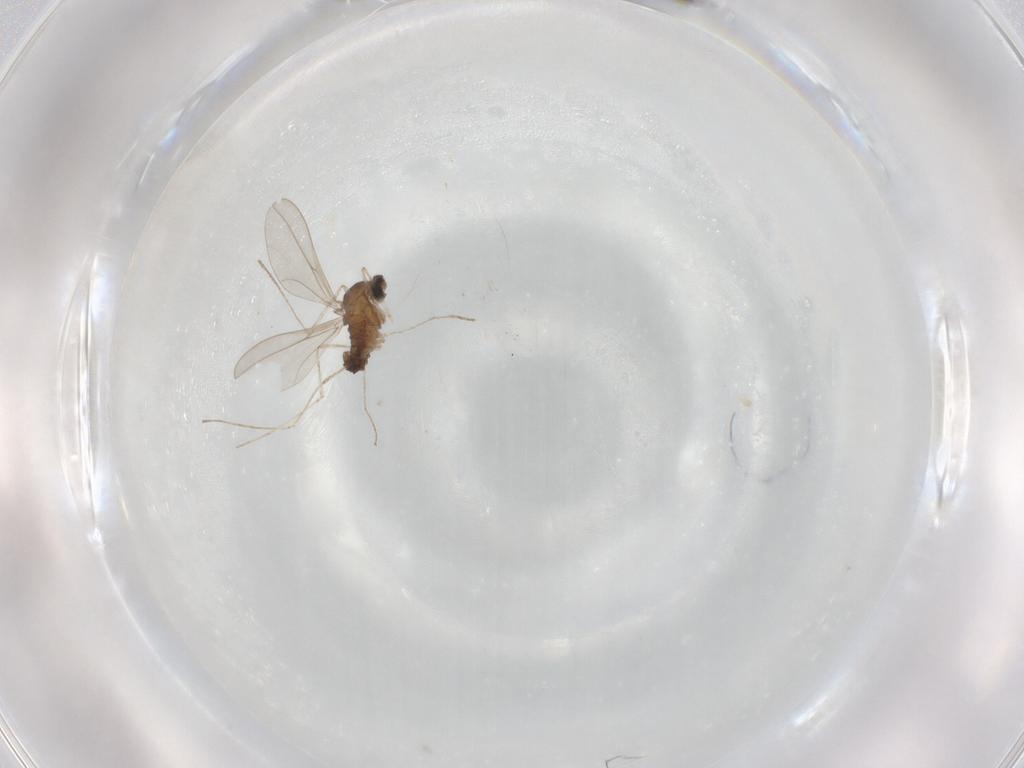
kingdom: Animalia
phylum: Arthropoda
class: Insecta
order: Diptera
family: Cecidomyiidae
